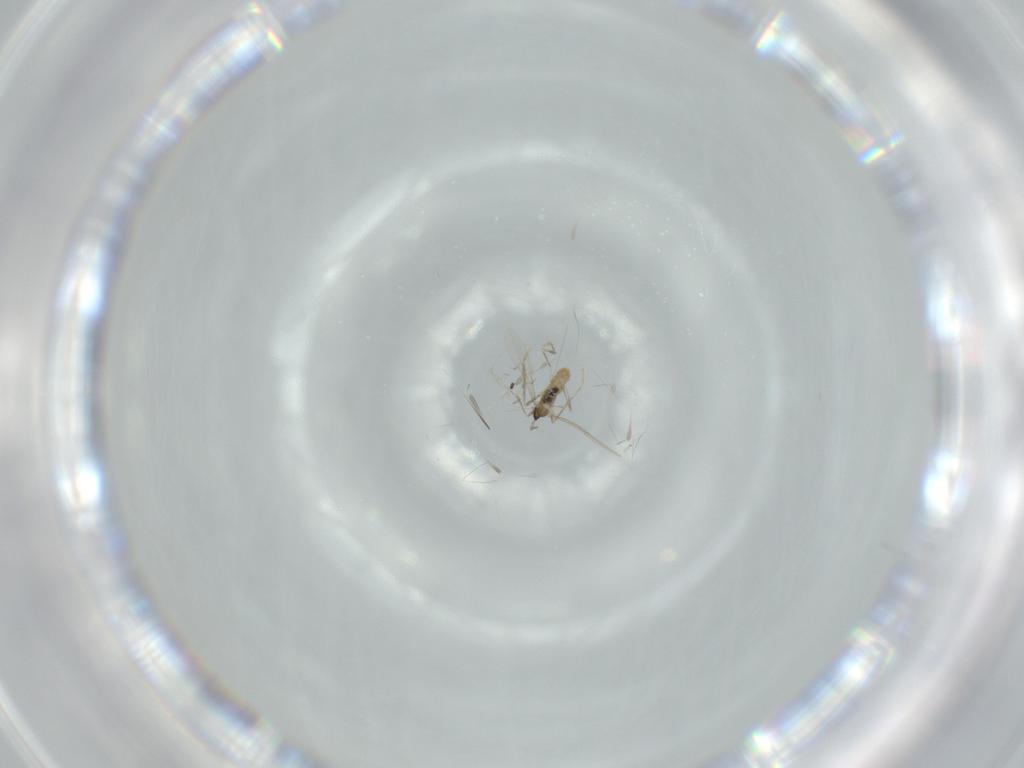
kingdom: Animalia
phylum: Arthropoda
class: Insecta
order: Diptera
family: Cecidomyiidae
